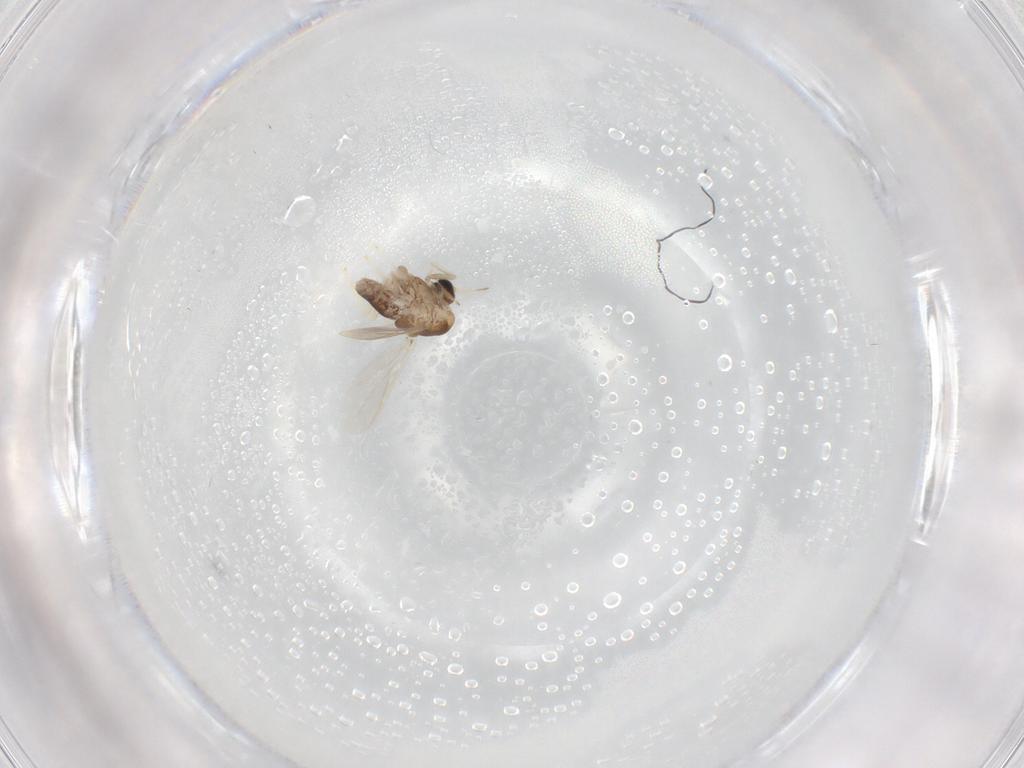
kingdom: Animalia
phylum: Arthropoda
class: Insecta
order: Diptera
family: Chironomidae
